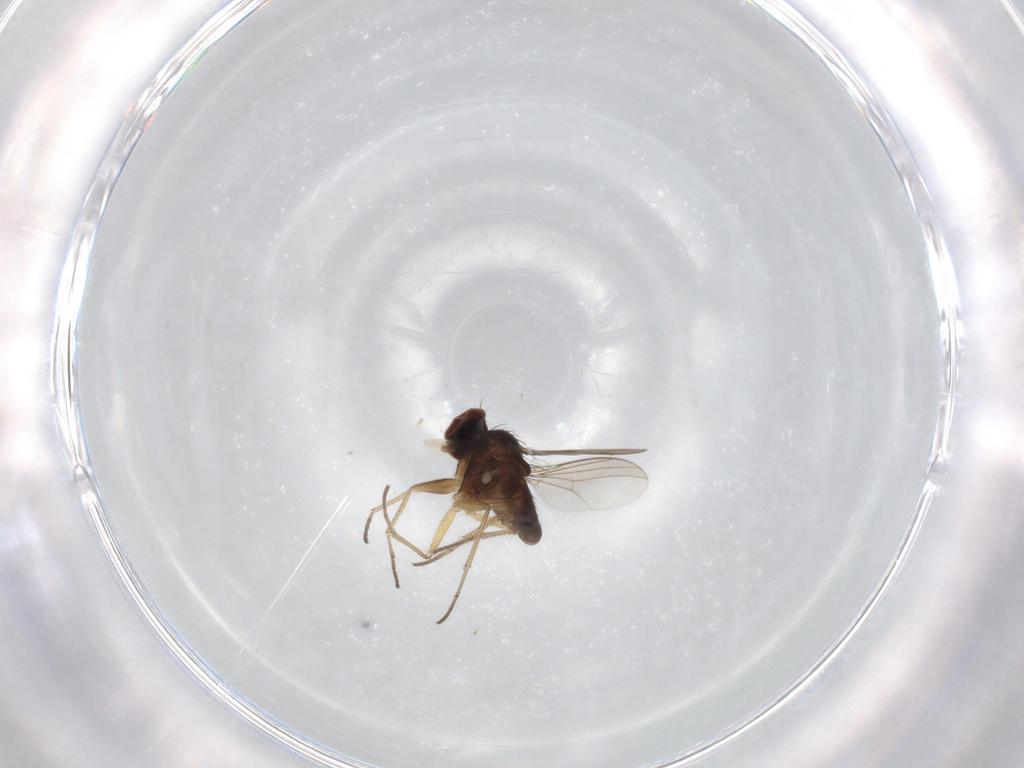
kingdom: Animalia
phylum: Arthropoda
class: Insecta
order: Diptera
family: Dolichopodidae
